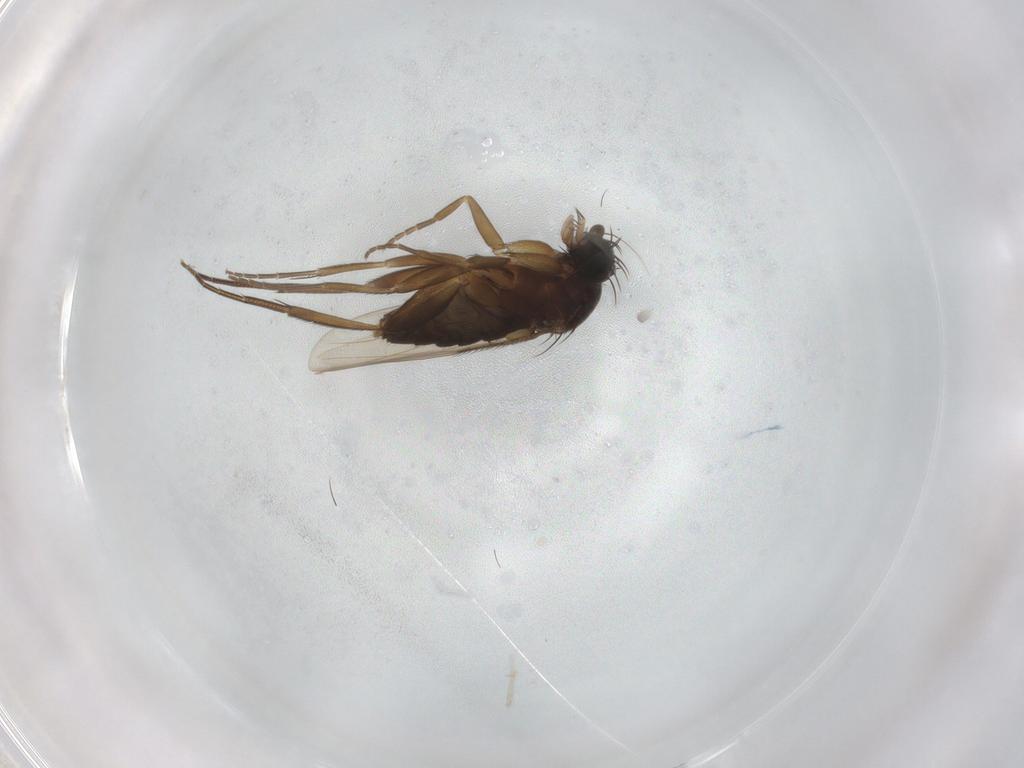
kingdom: Animalia
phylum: Arthropoda
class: Insecta
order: Diptera
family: Phoridae
